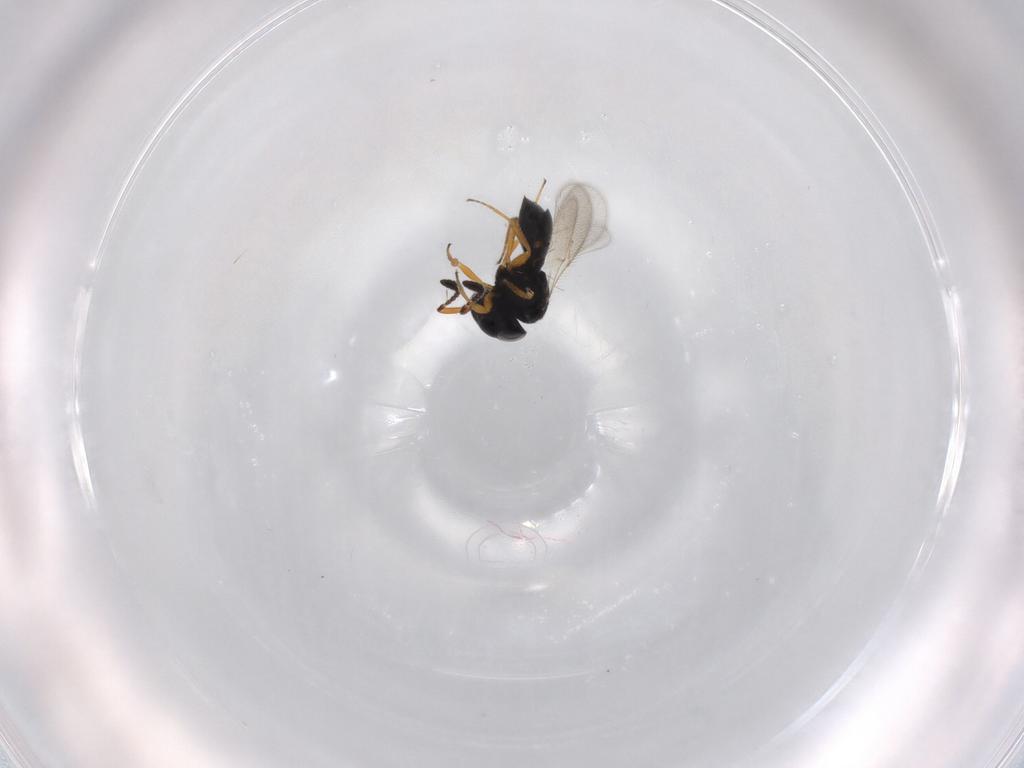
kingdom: Animalia
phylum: Arthropoda
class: Insecta
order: Hymenoptera
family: Scelionidae
